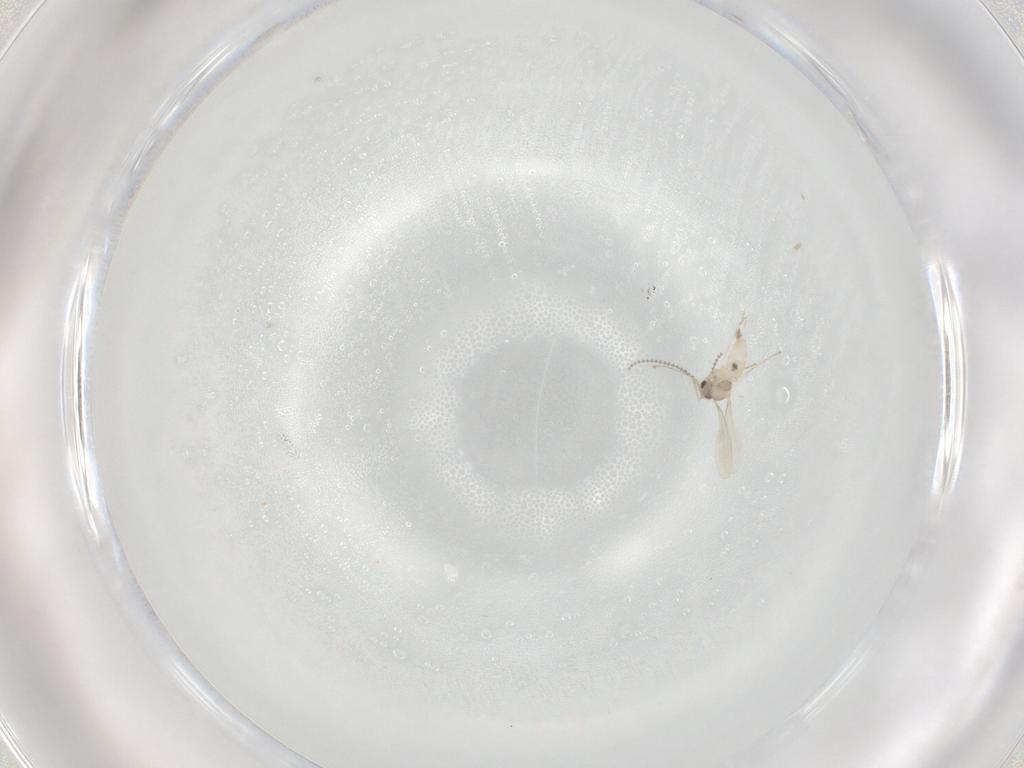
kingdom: Animalia
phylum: Arthropoda
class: Insecta
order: Diptera
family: Cecidomyiidae
